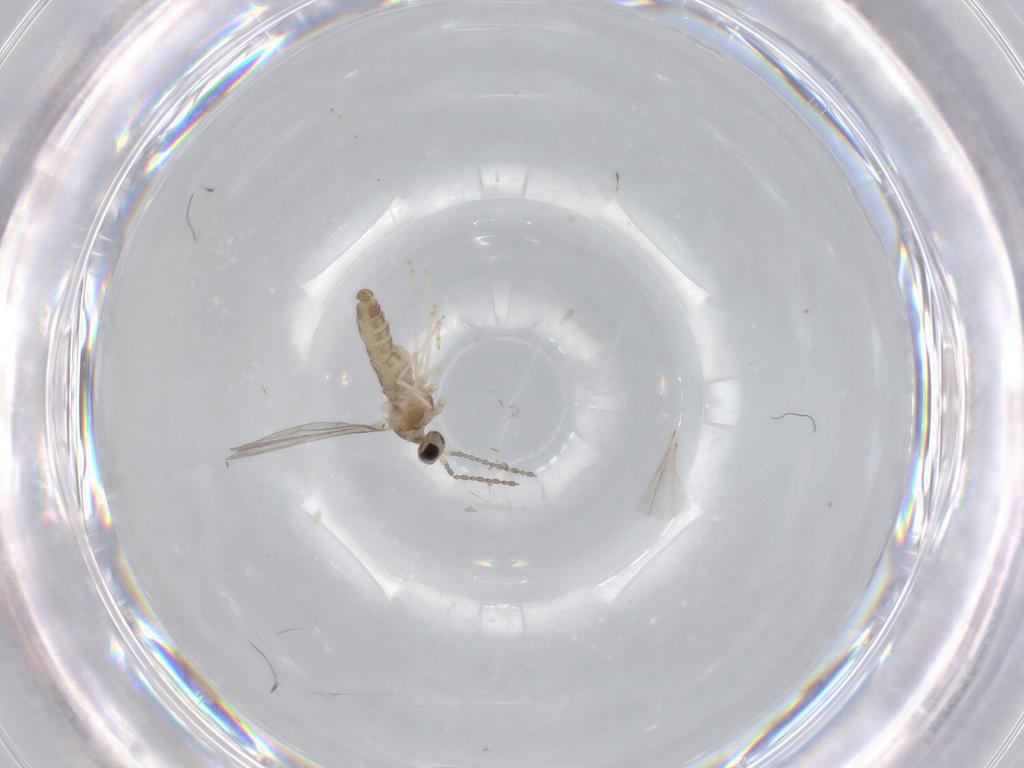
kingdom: Animalia
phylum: Arthropoda
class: Insecta
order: Diptera
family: Cecidomyiidae
